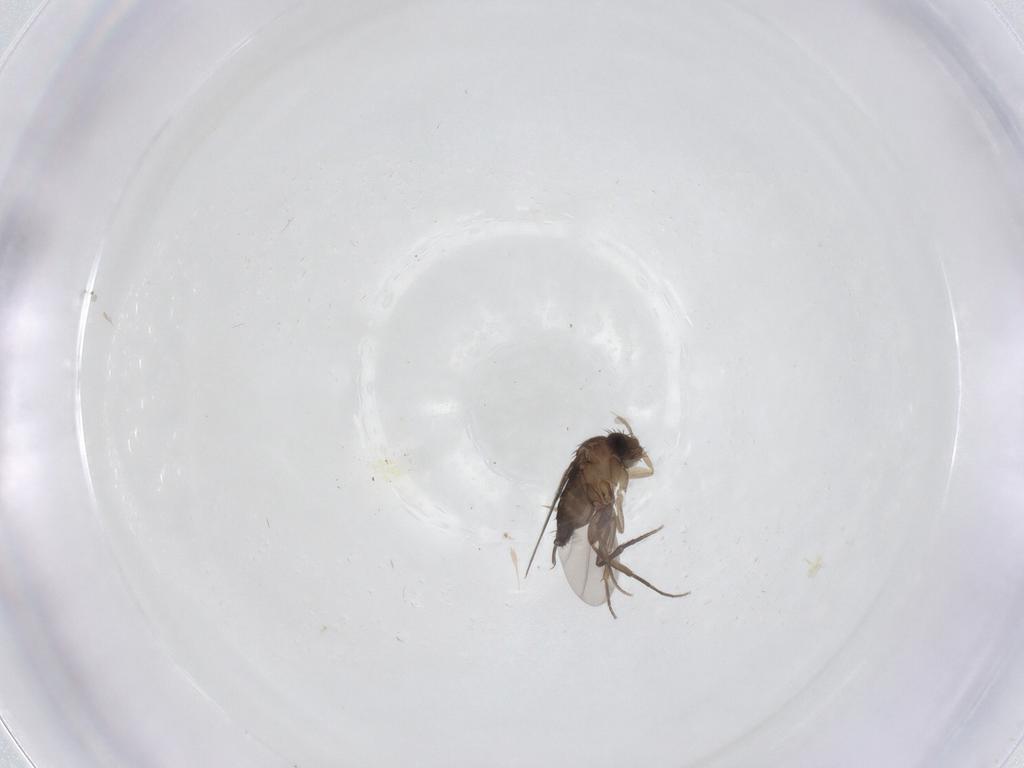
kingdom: Animalia
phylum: Arthropoda
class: Insecta
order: Diptera
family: Phoridae
